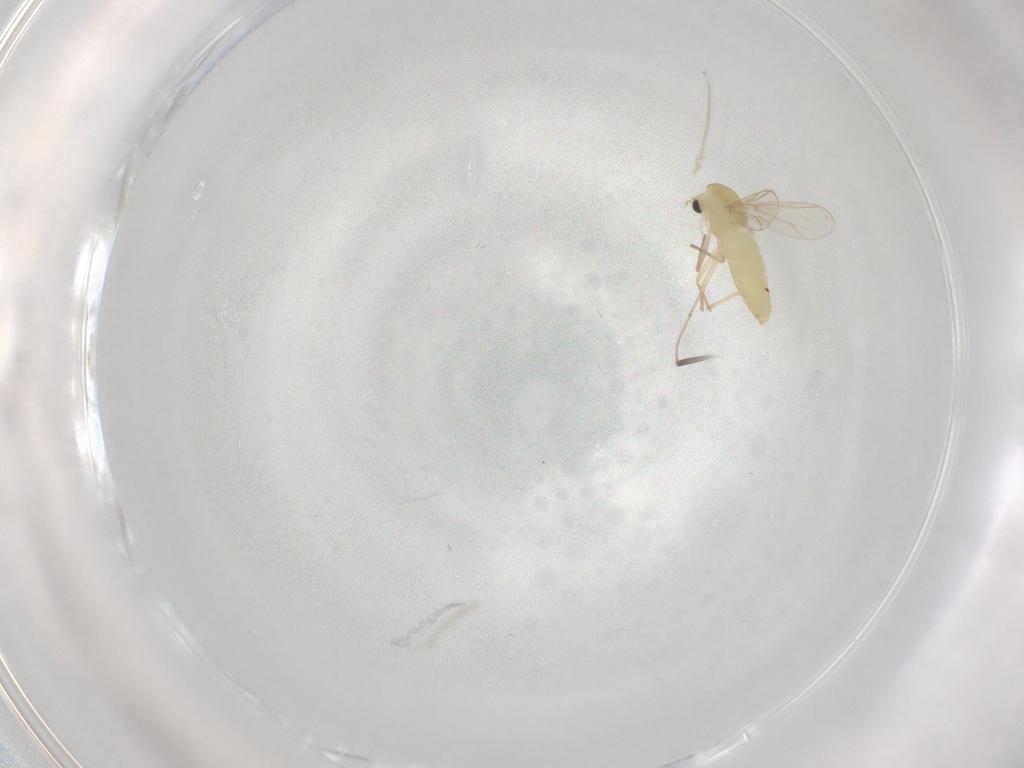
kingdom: Animalia
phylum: Arthropoda
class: Insecta
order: Diptera
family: Chironomidae
